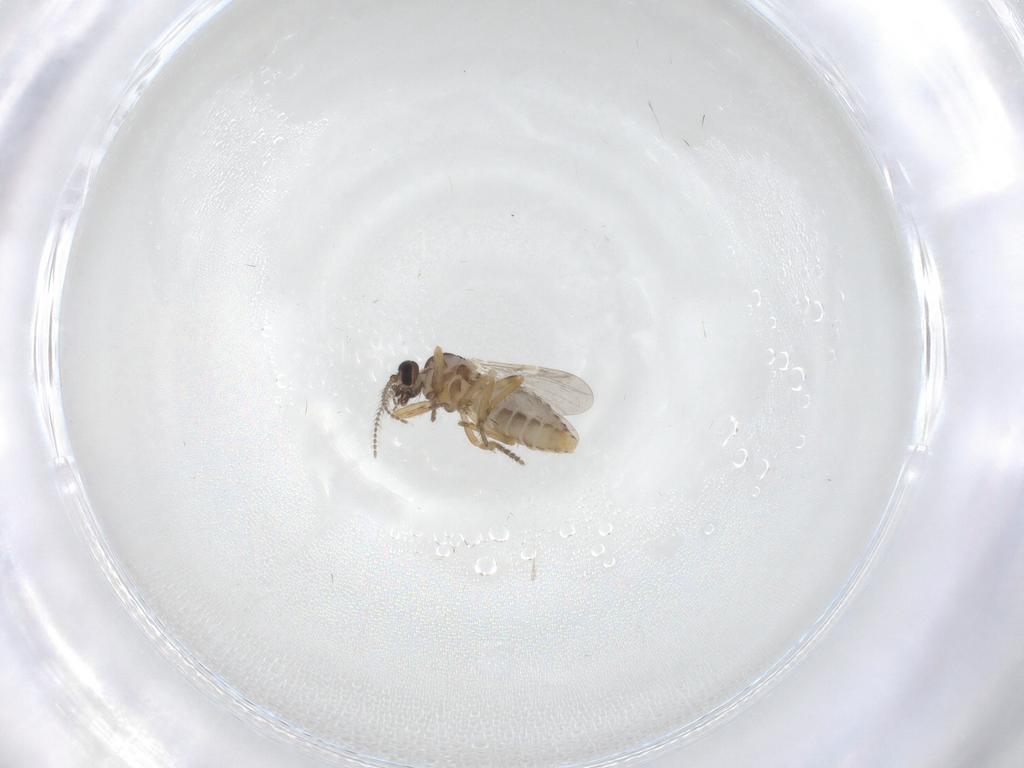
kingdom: Animalia
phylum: Arthropoda
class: Insecta
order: Diptera
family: Ceratopogonidae
